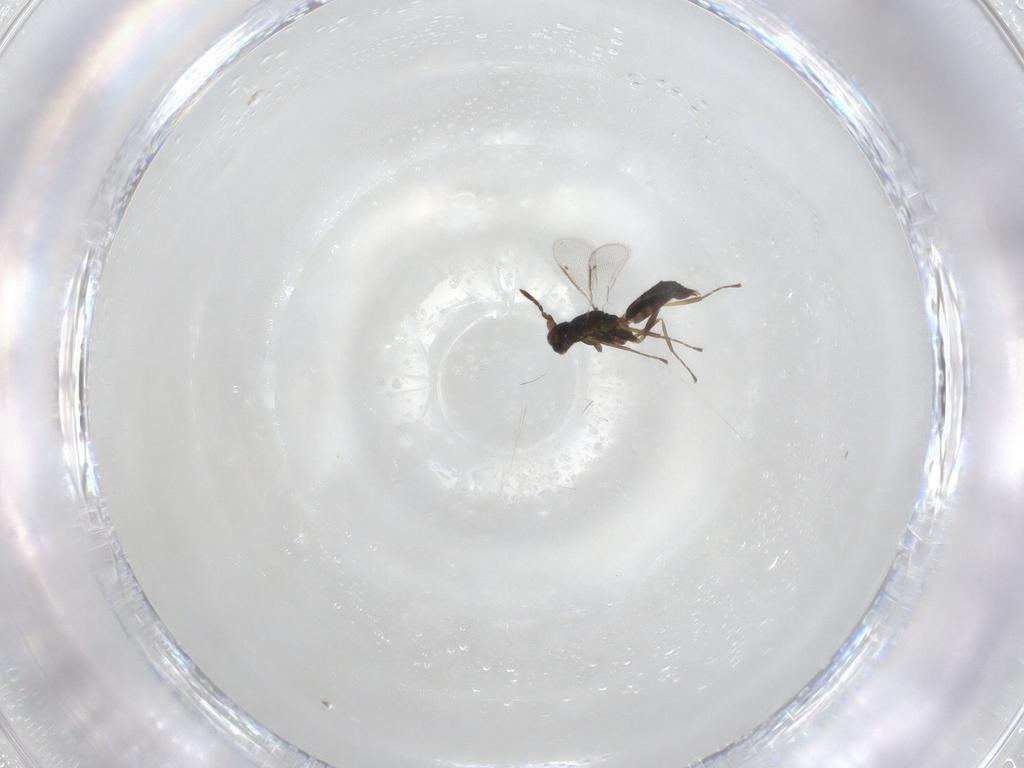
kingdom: Animalia
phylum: Arthropoda
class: Insecta
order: Hymenoptera
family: Eulophidae
